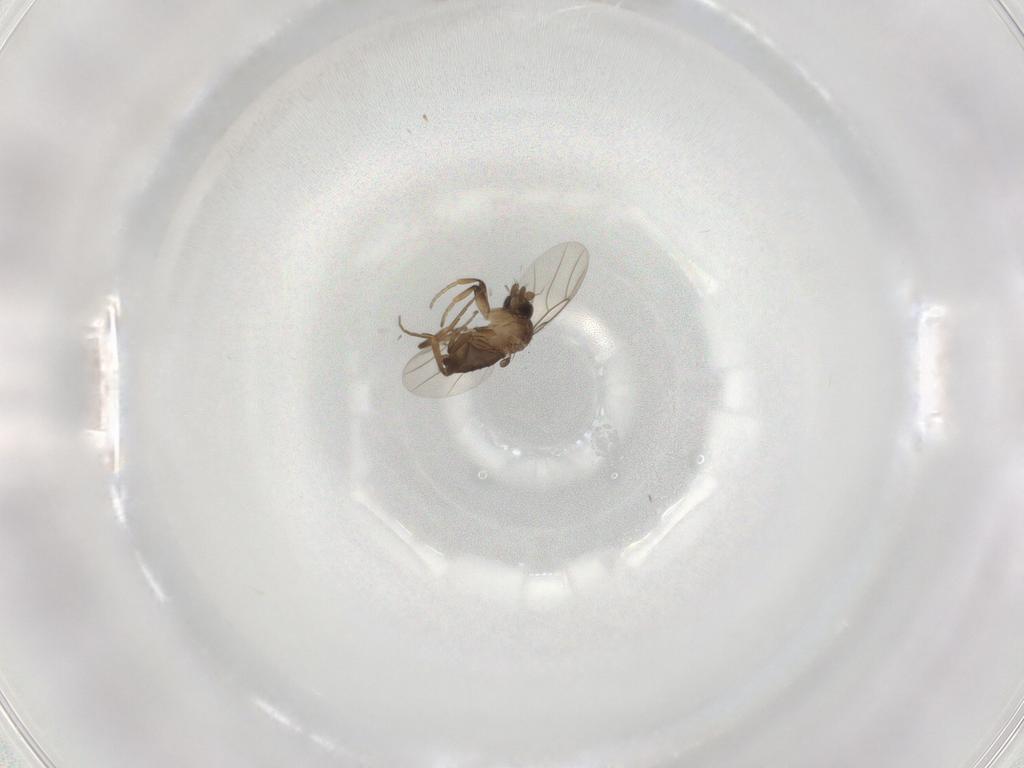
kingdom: Animalia
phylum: Arthropoda
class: Insecta
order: Diptera
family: Phoridae
